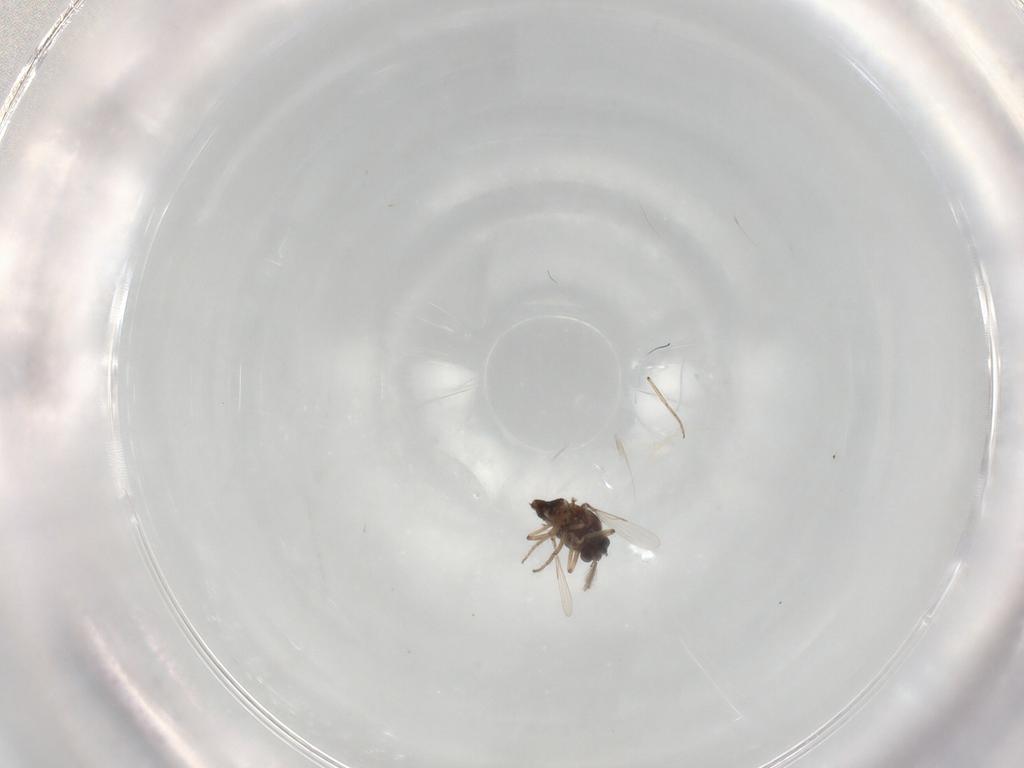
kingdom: Animalia
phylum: Arthropoda
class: Insecta
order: Diptera
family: Ceratopogonidae
